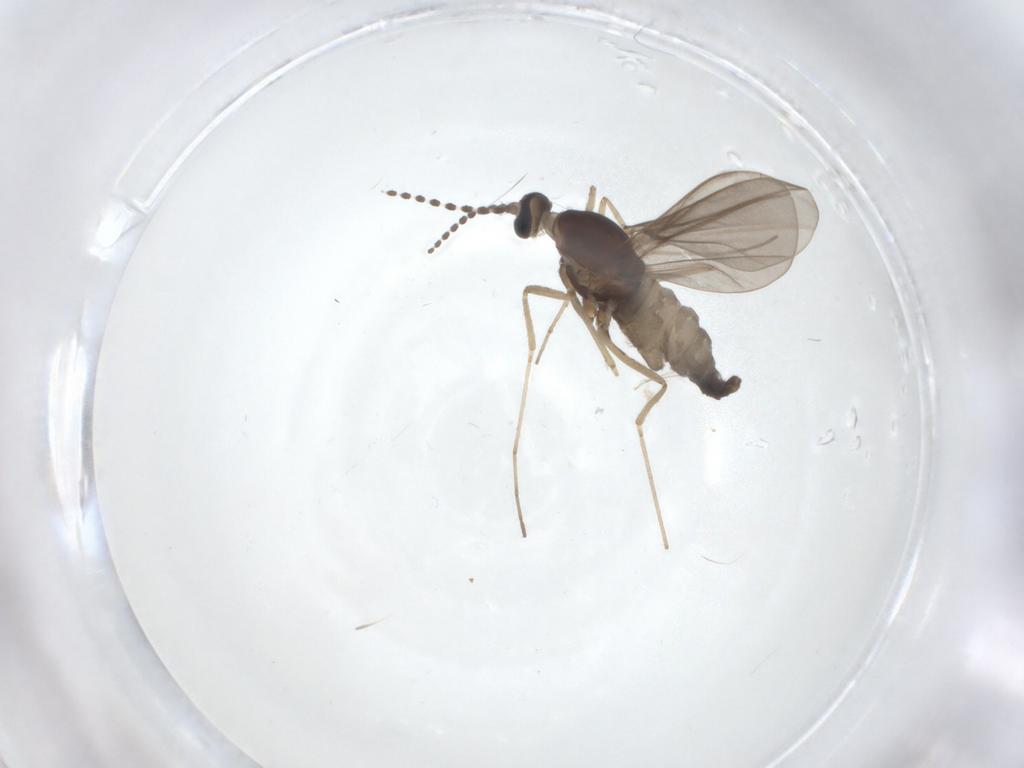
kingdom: Animalia
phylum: Arthropoda
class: Insecta
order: Diptera
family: Cecidomyiidae
